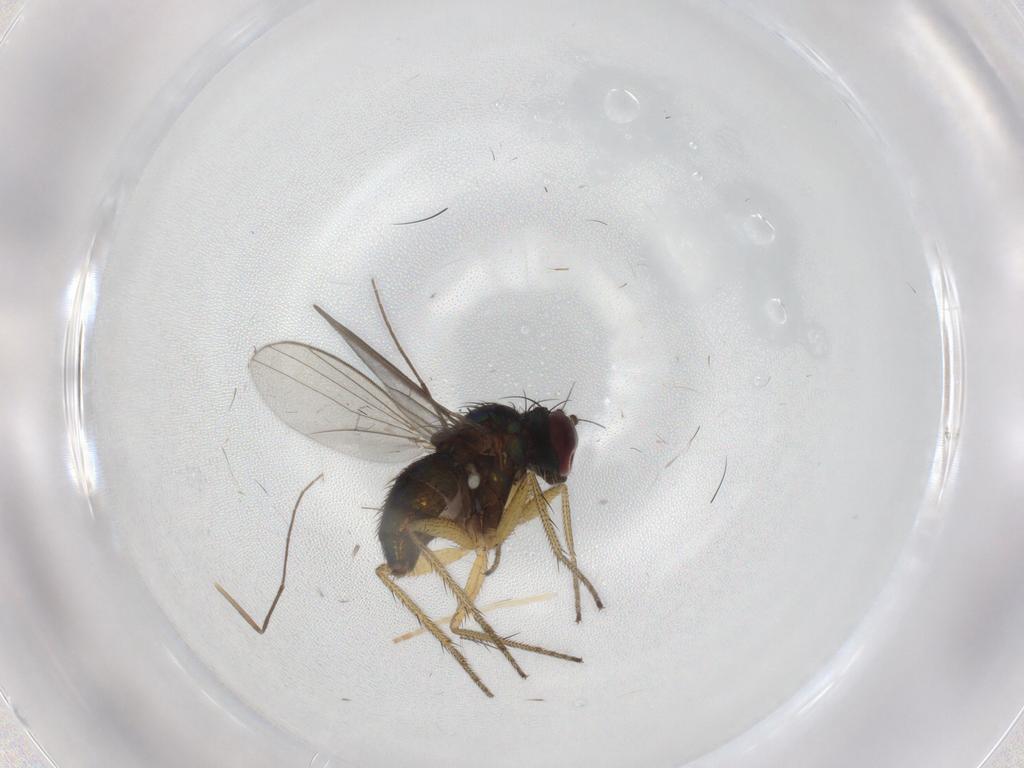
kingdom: Animalia
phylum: Arthropoda
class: Insecta
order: Diptera
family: Chironomidae
